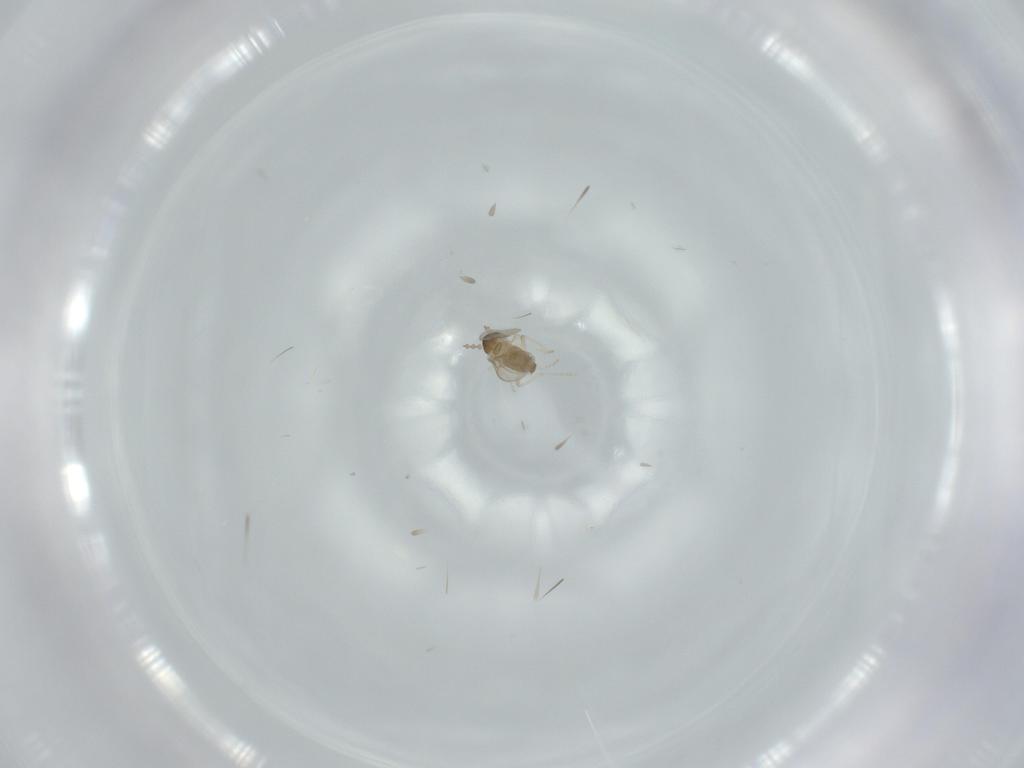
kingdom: Animalia
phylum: Arthropoda
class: Insecta
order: Diptera
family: Cecidomyiidae
